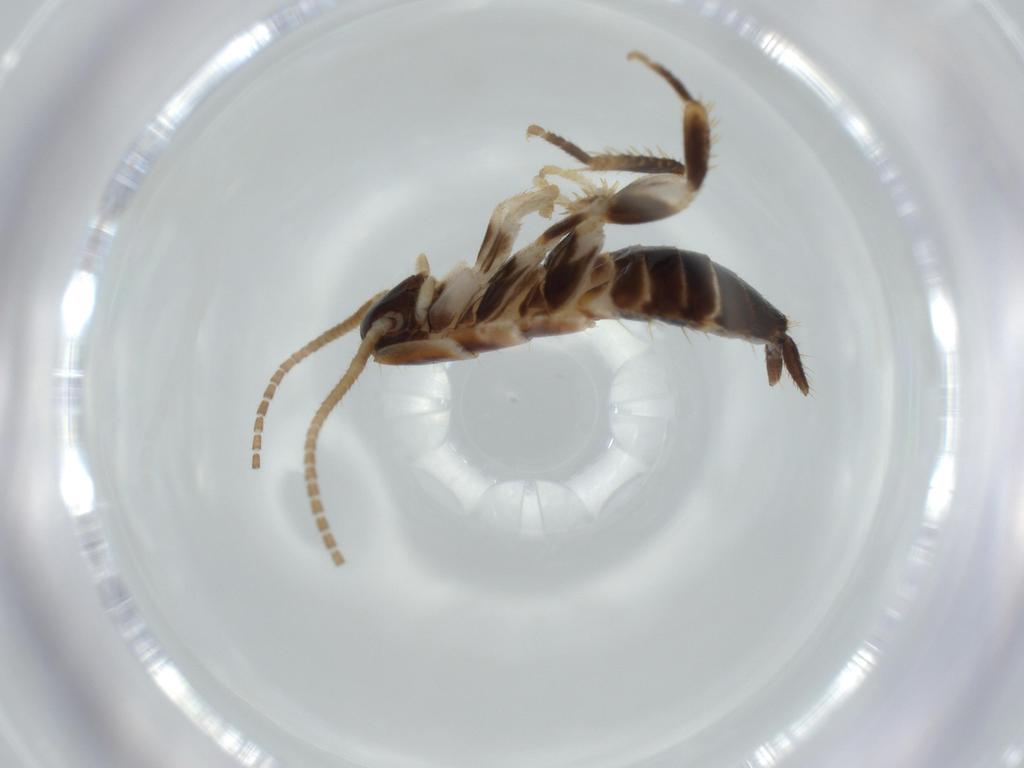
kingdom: Animalia
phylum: Arthropoda
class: Insecta
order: Blattodea
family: Ectobiidae
